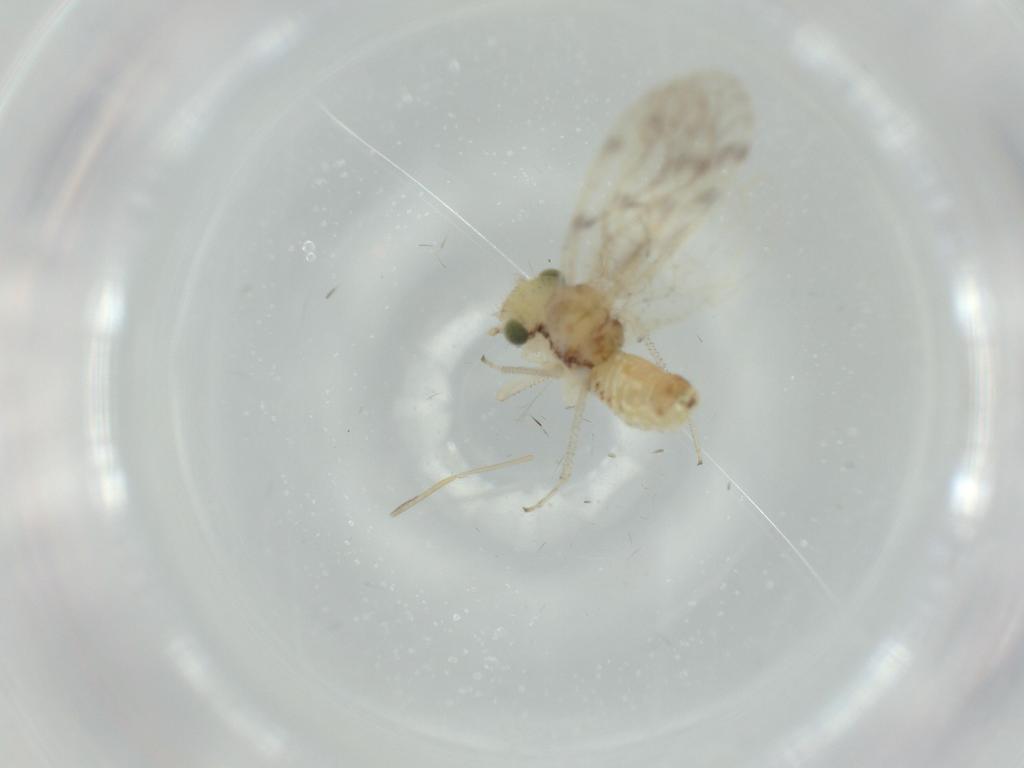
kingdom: Animalia
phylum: Arthropoda
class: Insecta
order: Psocodea
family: Pseudocaeciliidae
